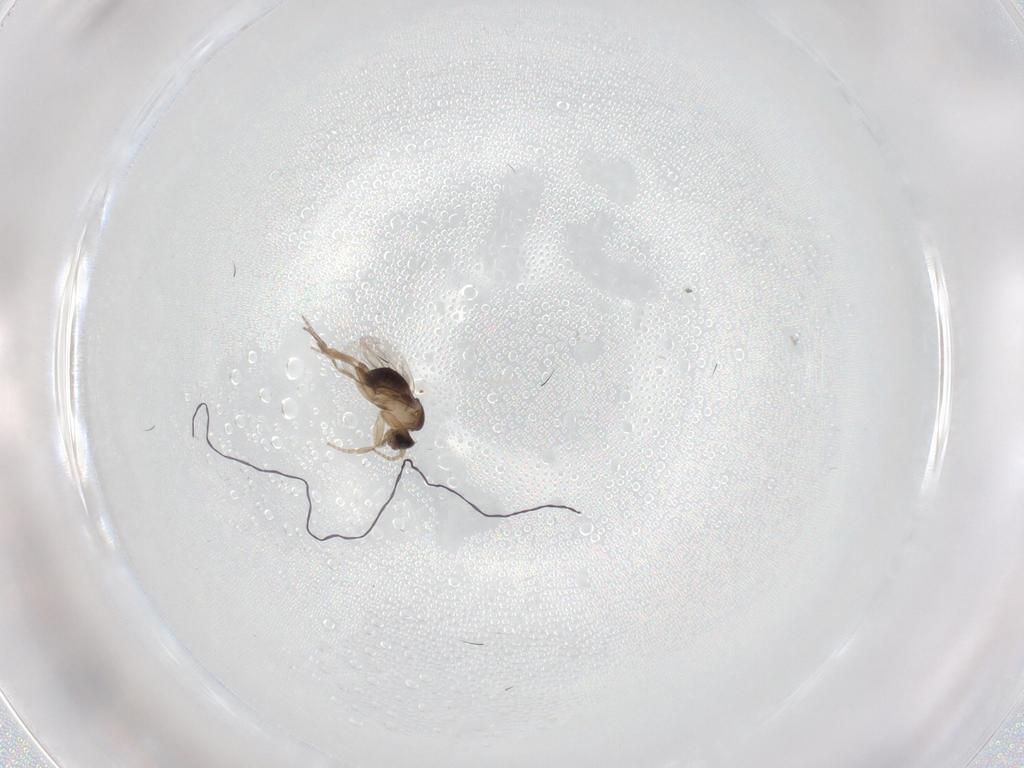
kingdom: Animalia
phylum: Arthropoda
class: Insecta
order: Diptera
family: Phoridae
